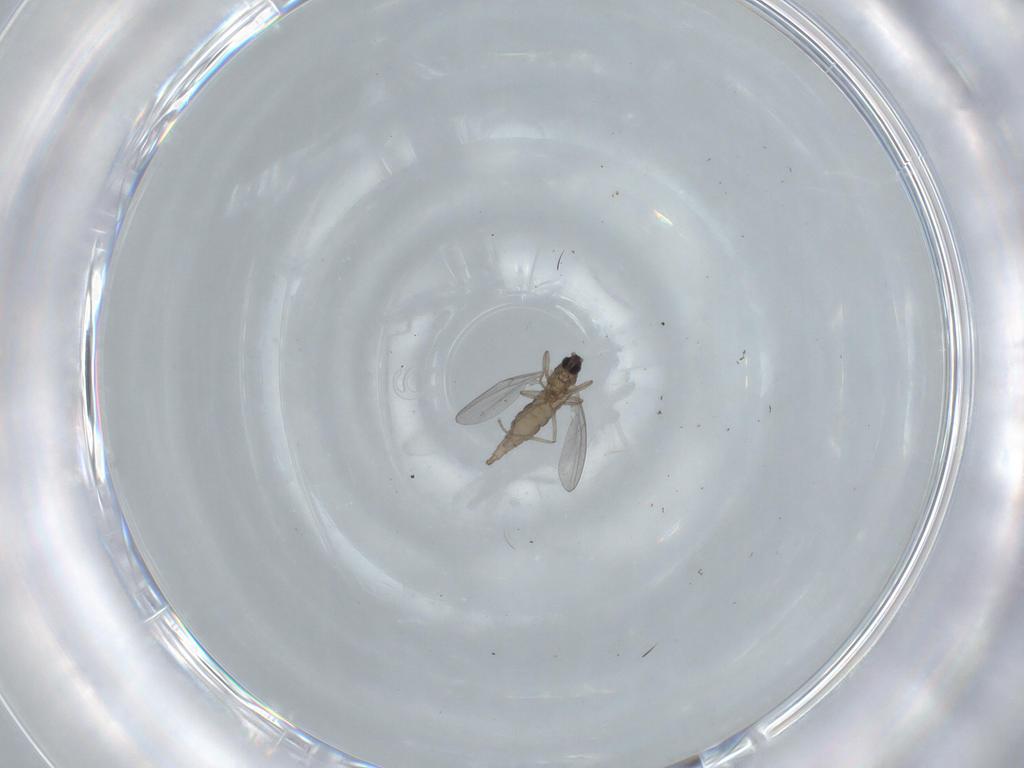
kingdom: Animalia
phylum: Arthropoda
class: Insecta
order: Diptera
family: Cecidomyiidae
